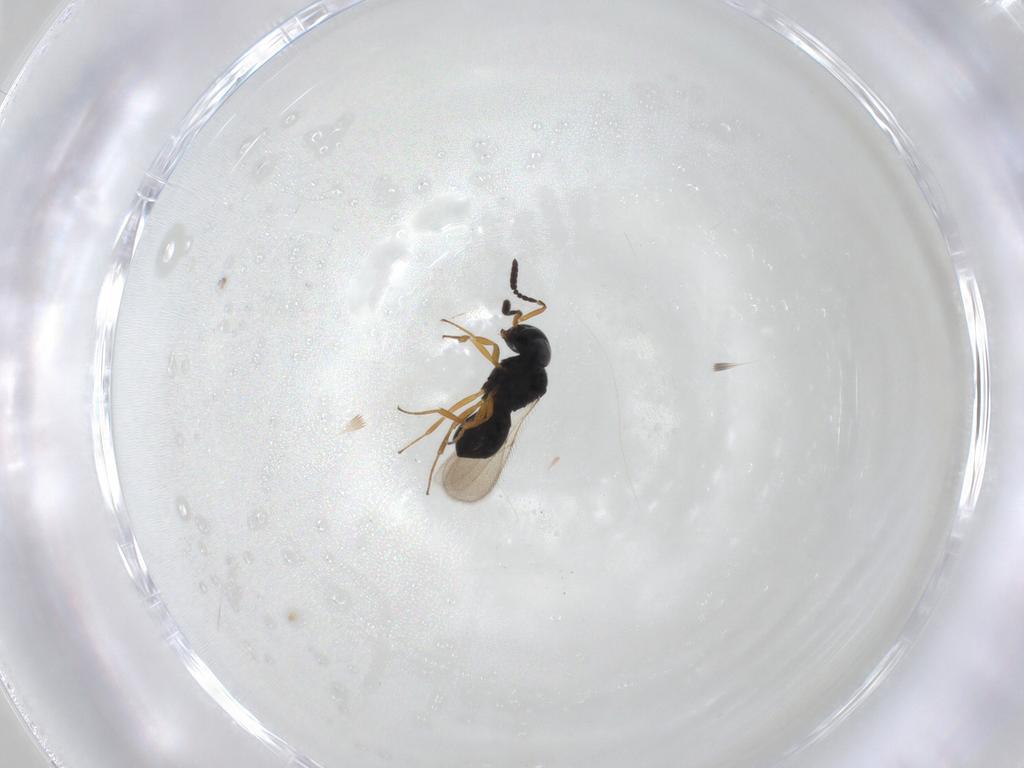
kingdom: Animalia
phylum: Arthropoda
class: Insecta
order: Hymenoptera
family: Scelionidae
